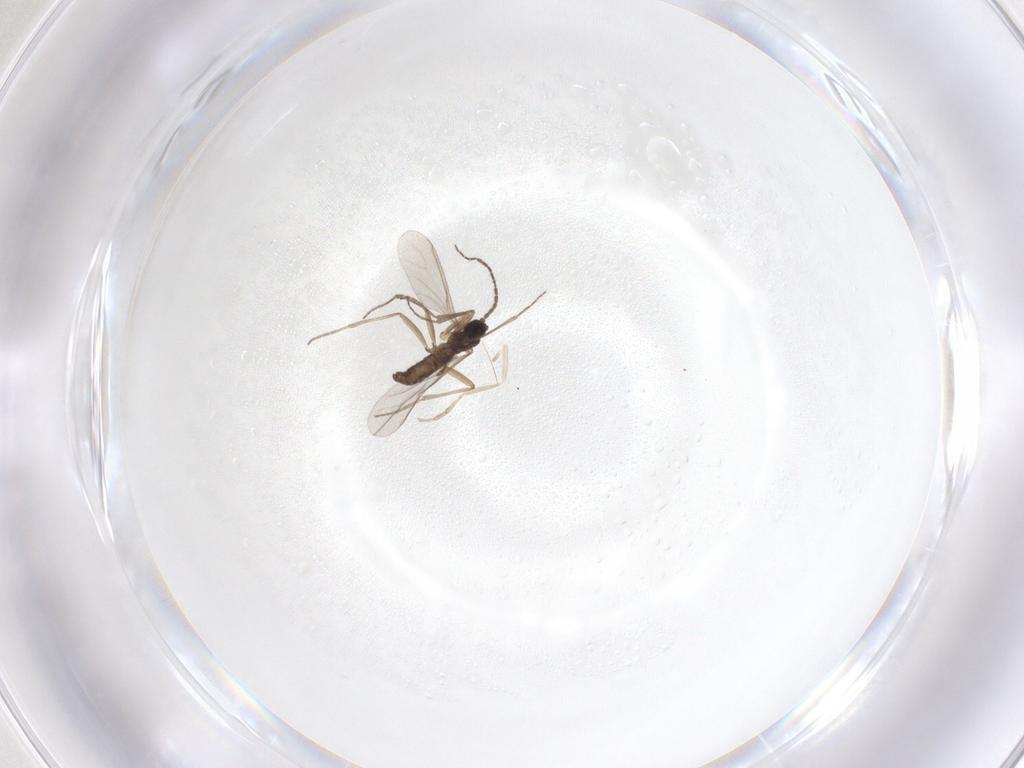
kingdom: Animalia
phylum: Arthropoda
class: Insecta
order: Diptera
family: Sciaridae
